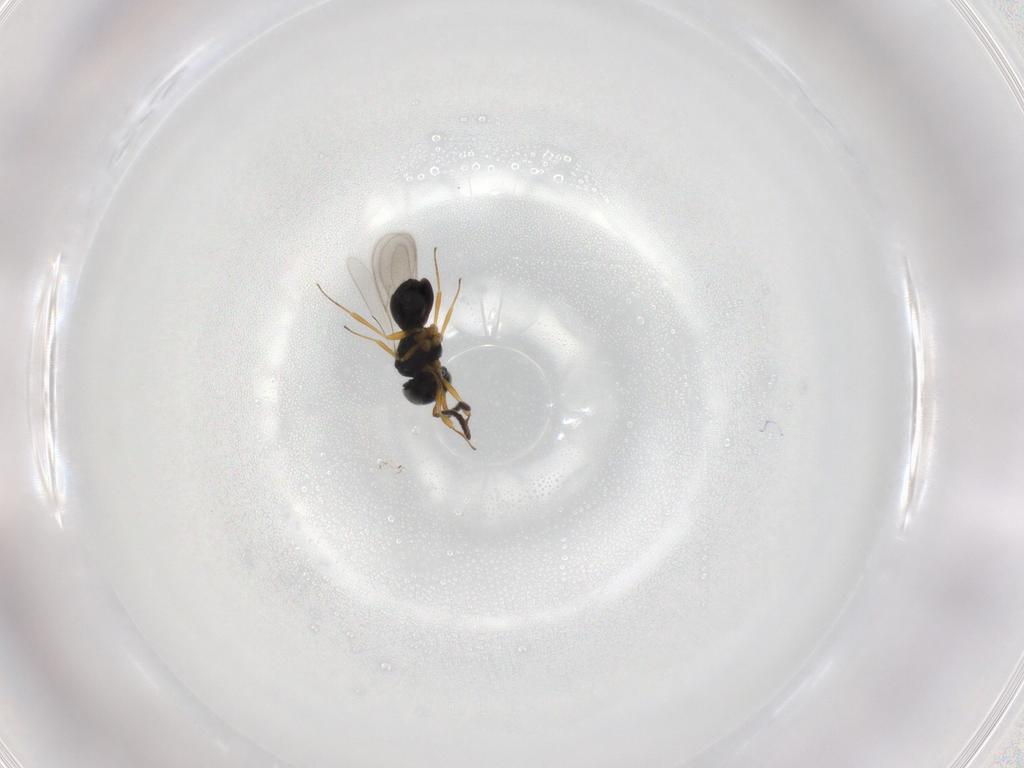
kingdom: Animalia
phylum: Arthropoda
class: Insecta
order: Hymenoptera
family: Scelionidae
